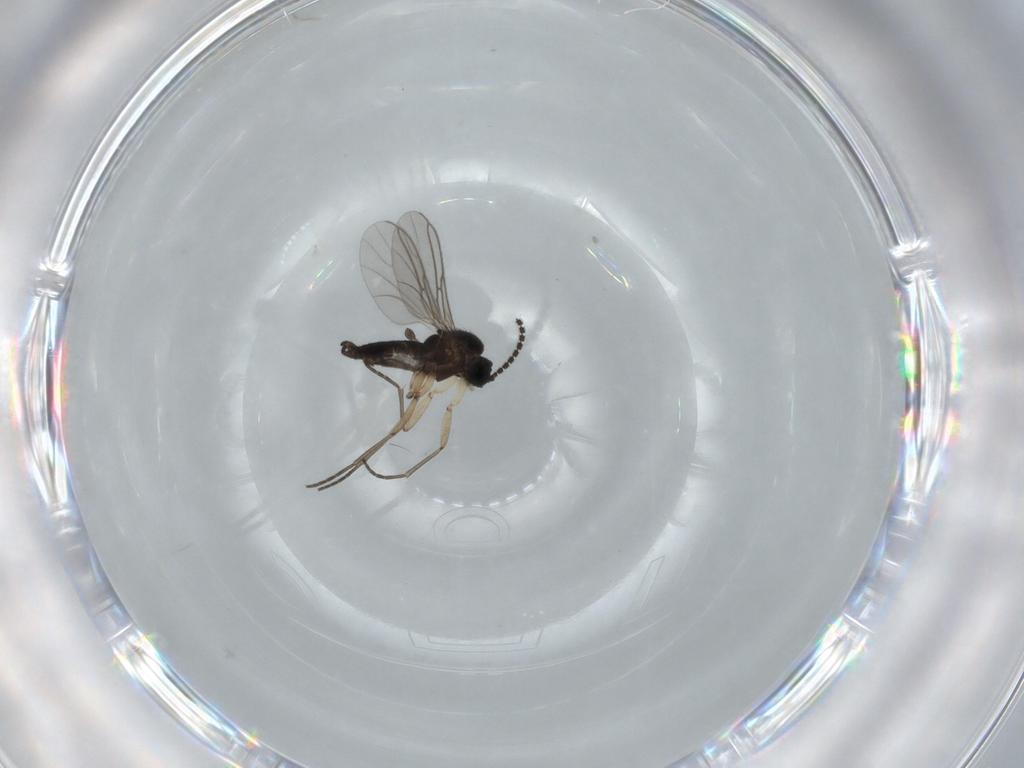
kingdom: Animalia
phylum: Arthropoda
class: Insecta
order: Diptera
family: Sciaridae
